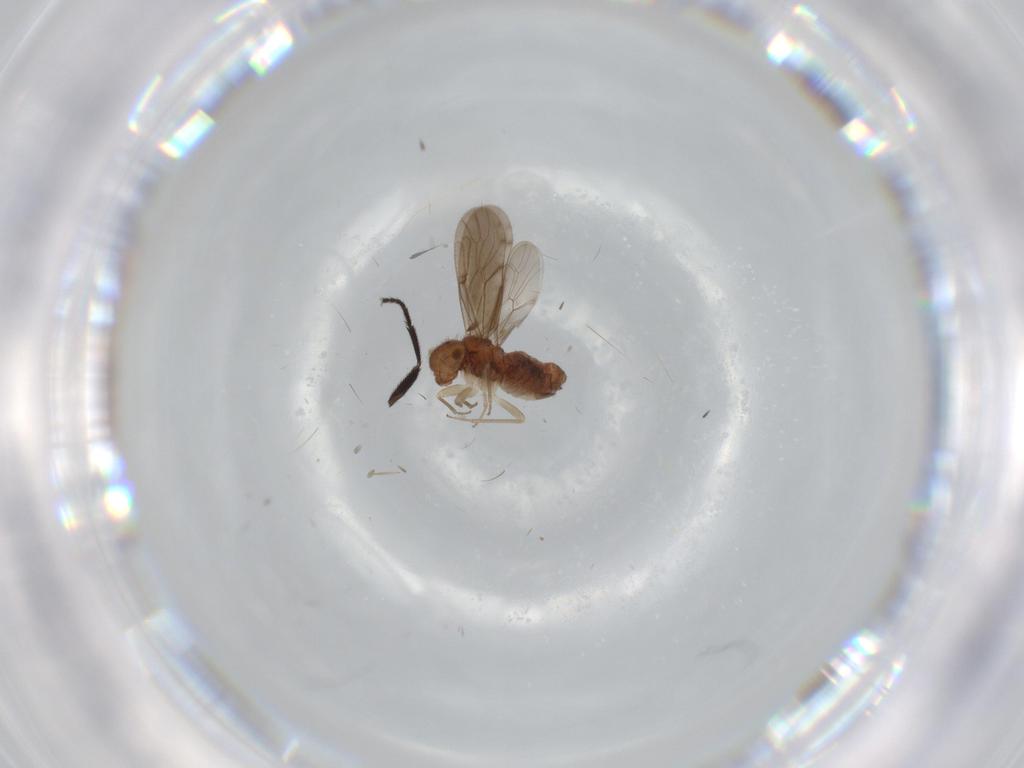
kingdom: Animalia
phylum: Arthropoda
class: Insecta
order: Psocodea
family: Ectopsocidae
